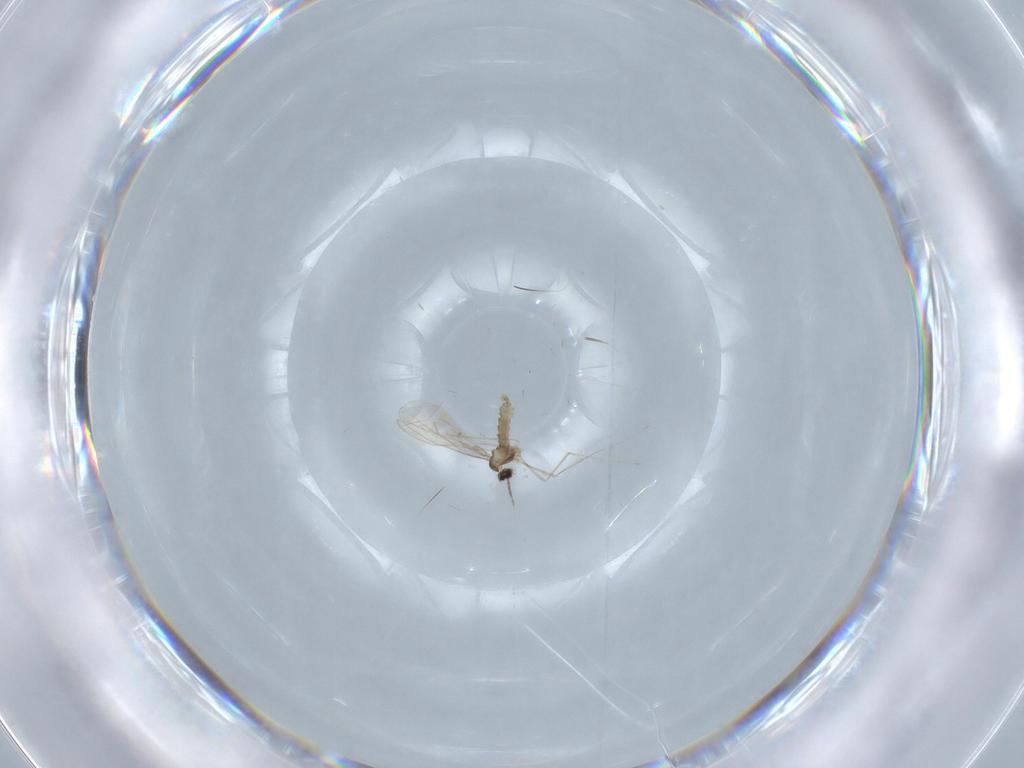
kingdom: Animalia
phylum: Arthropoda
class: Insecta
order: Diptera
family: Cecidomyiidae
